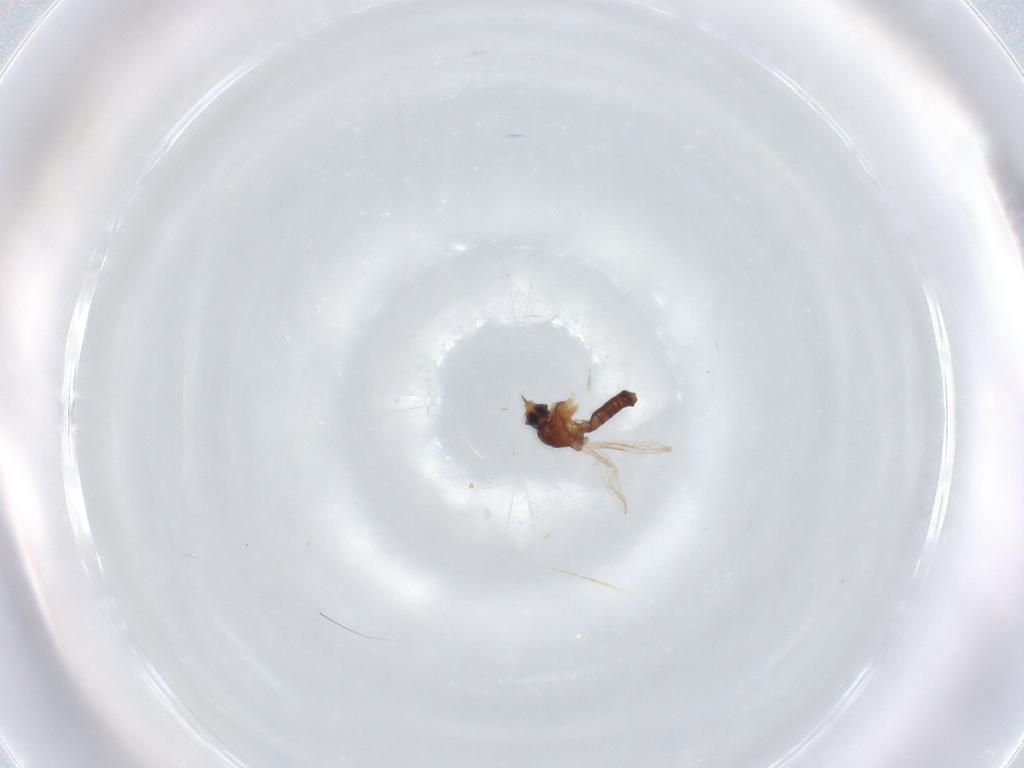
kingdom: Animalia
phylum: Arthropoda
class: Insecta
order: Diptera
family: Ceratopogonidae
